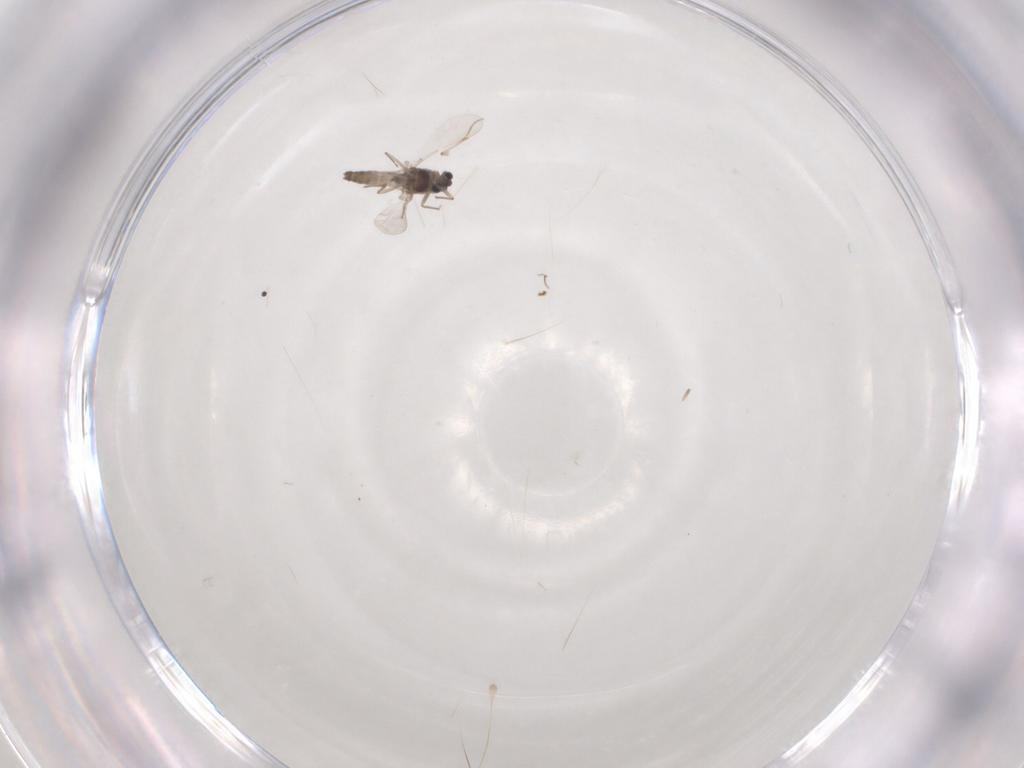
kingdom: Animalia
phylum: Arthropoda
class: Insecta
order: Diptera
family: Chironomidae
